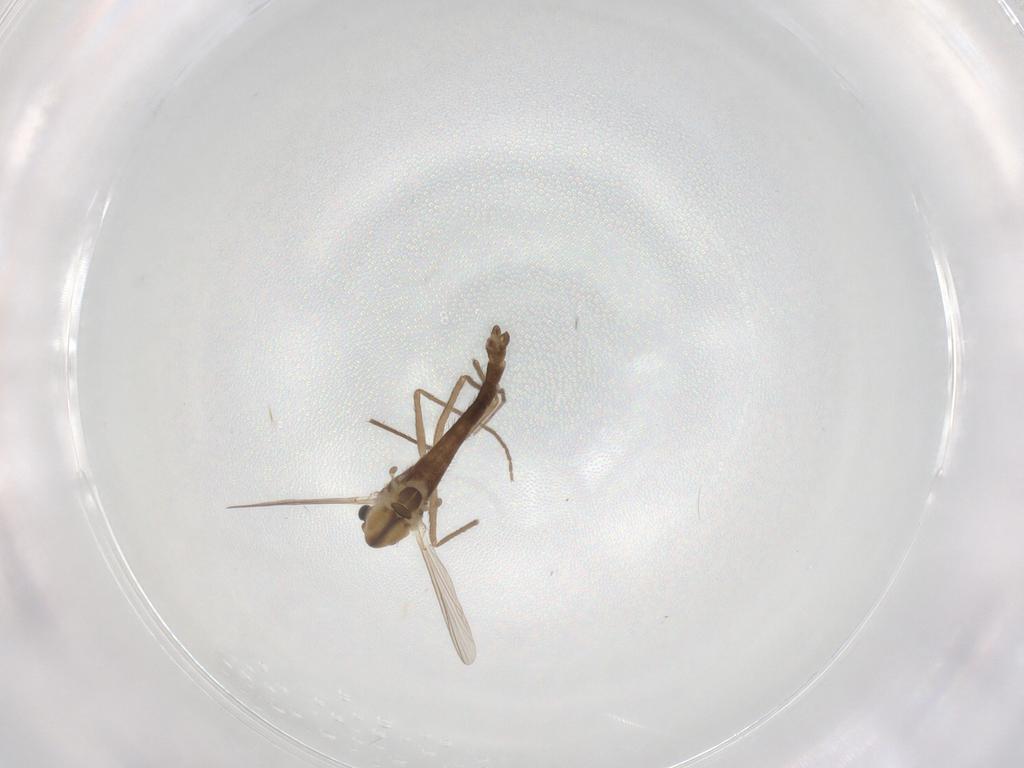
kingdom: Animalia
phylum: Arthropoda
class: Insecta
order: Diptera
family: Chironomidae
